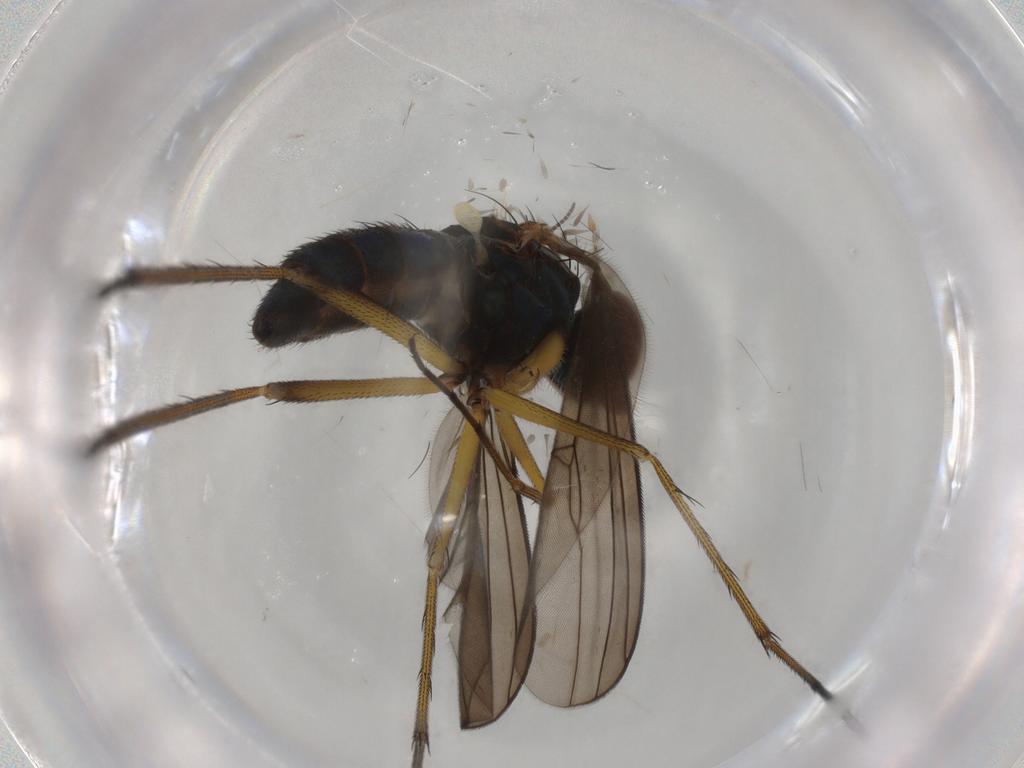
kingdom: Animalia
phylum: Arthropoda
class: Insecta
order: Diptera
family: Dolichopodidae
